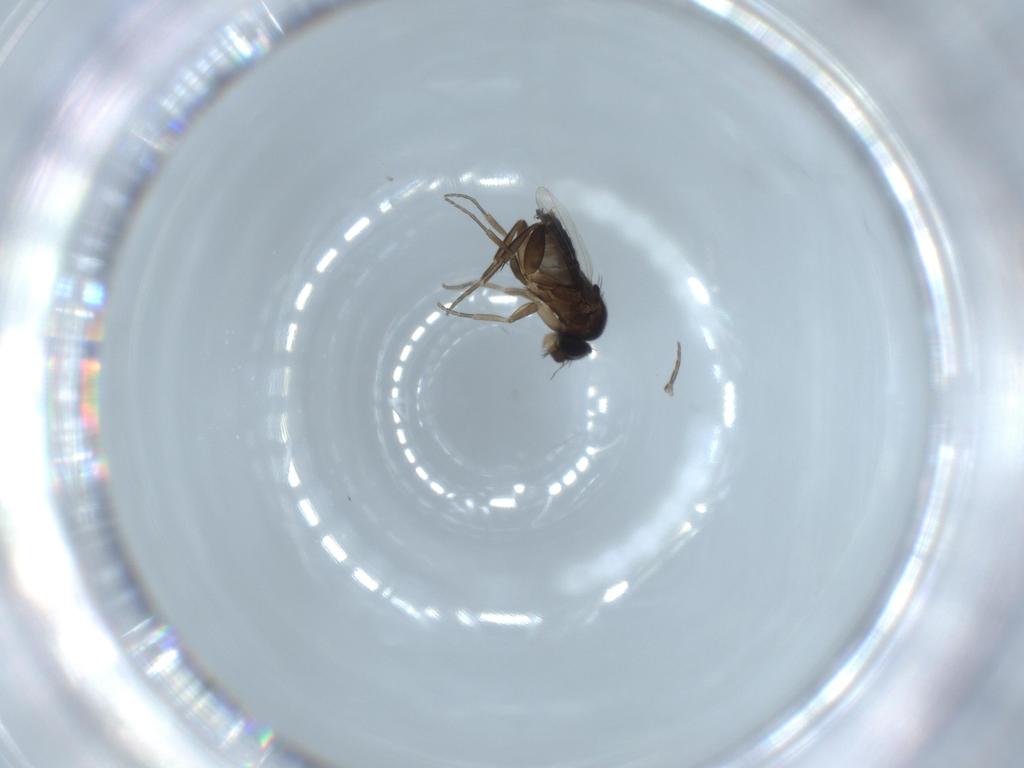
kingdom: Animalia
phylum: Arthropoda
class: Insecta
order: Diptera
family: Phoridae
